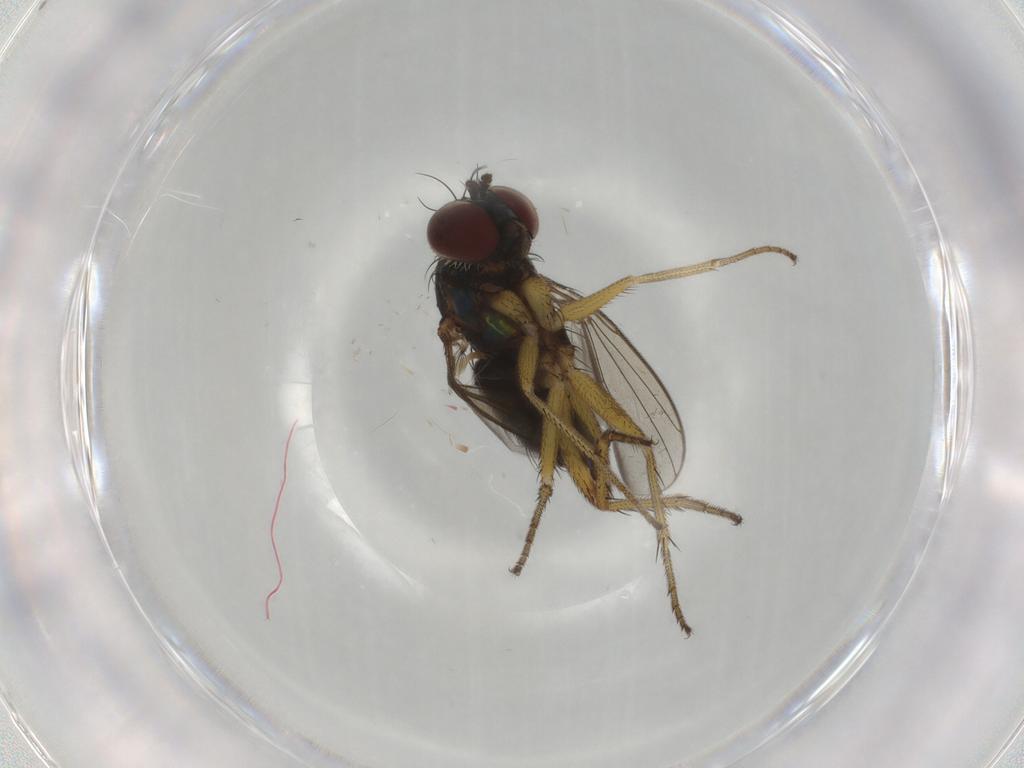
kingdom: Animalia
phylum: Arthropoda
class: Insecta
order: Diptera
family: Dolichopodidae
